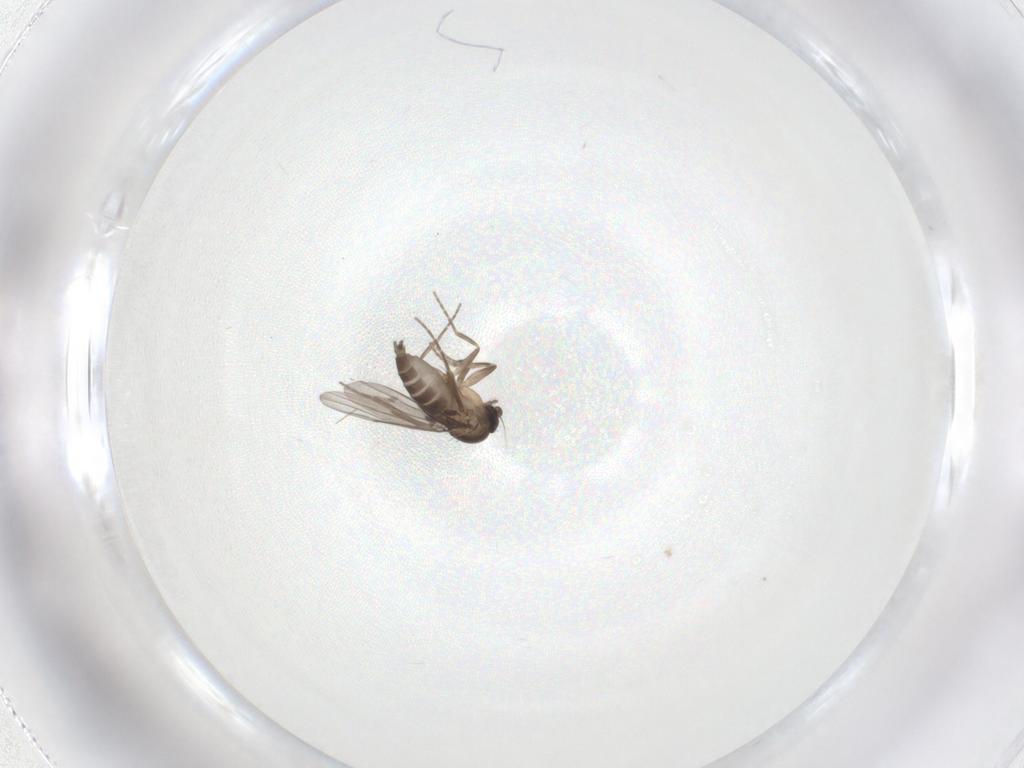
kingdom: Animalia
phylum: Arthropoda
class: Insecta
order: Diptera
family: Phoridae
